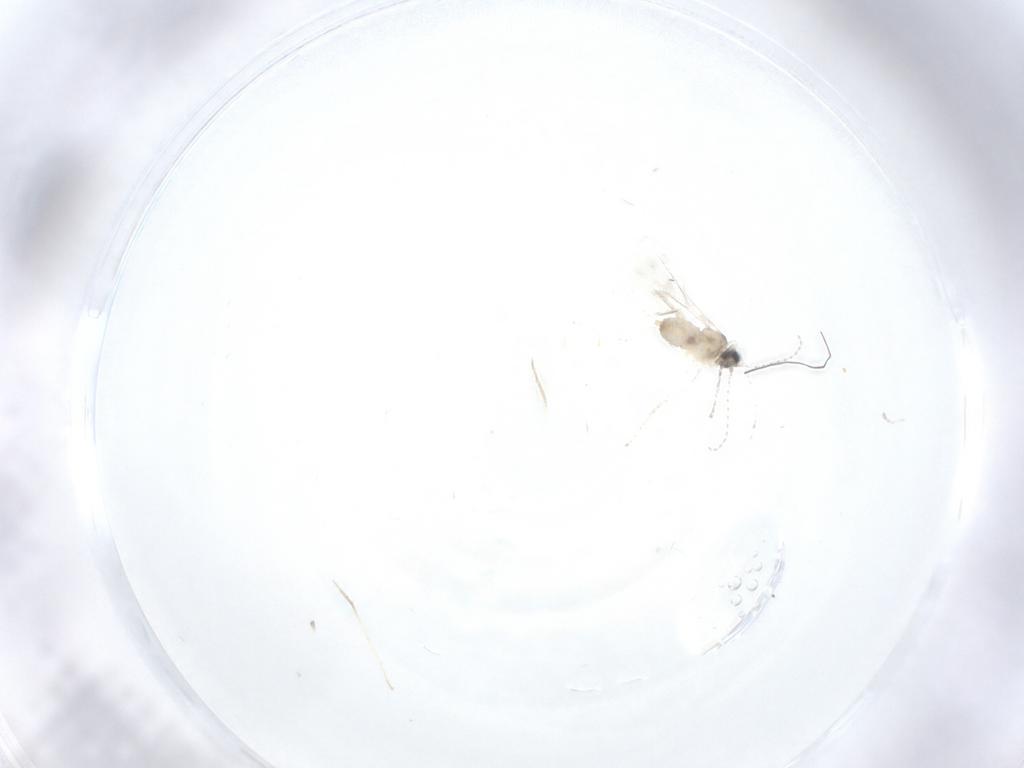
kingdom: Animalia
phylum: Arthropoda
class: Insecta
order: Diptera
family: Cecidomyiidae
